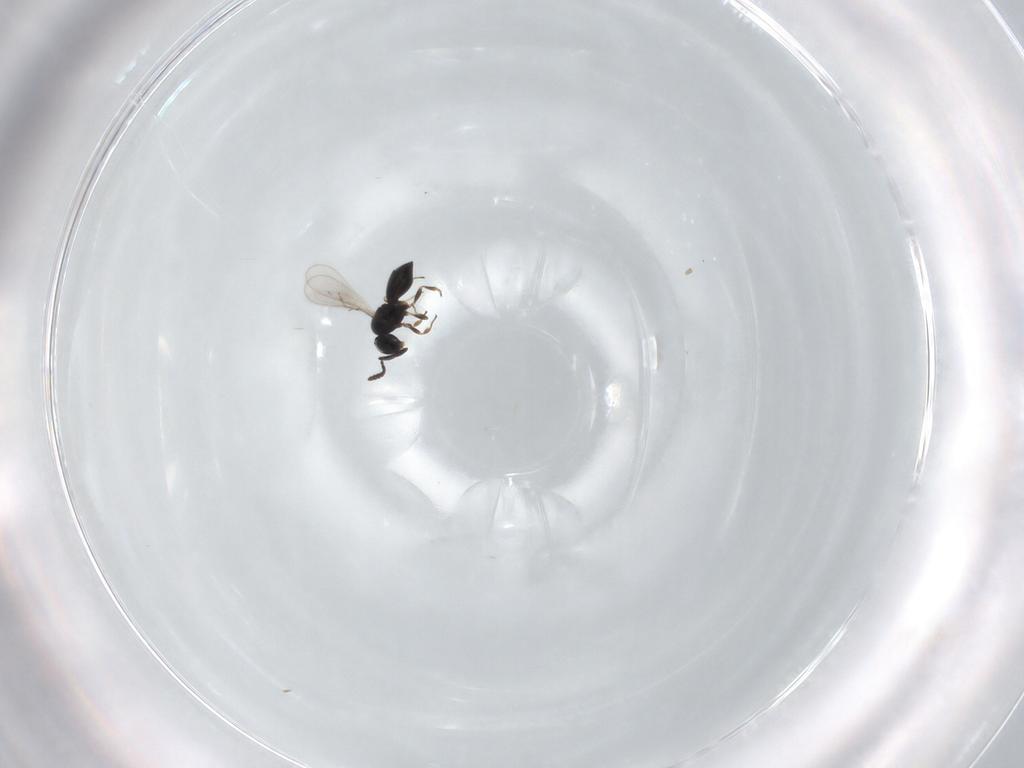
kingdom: Animalia
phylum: Arthropoda
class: Insecta
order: Hymenoptera
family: Scelionidae
